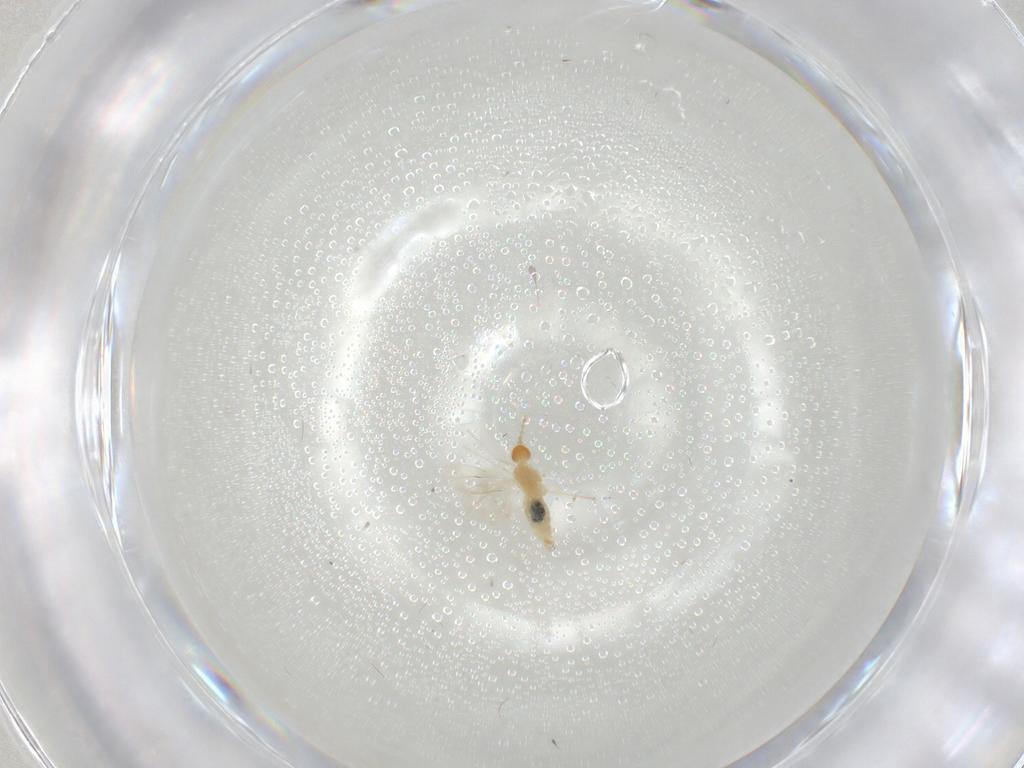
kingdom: Animalia
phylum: Arthropoda
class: Insecta
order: Diptera
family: Cecidomyiidae
